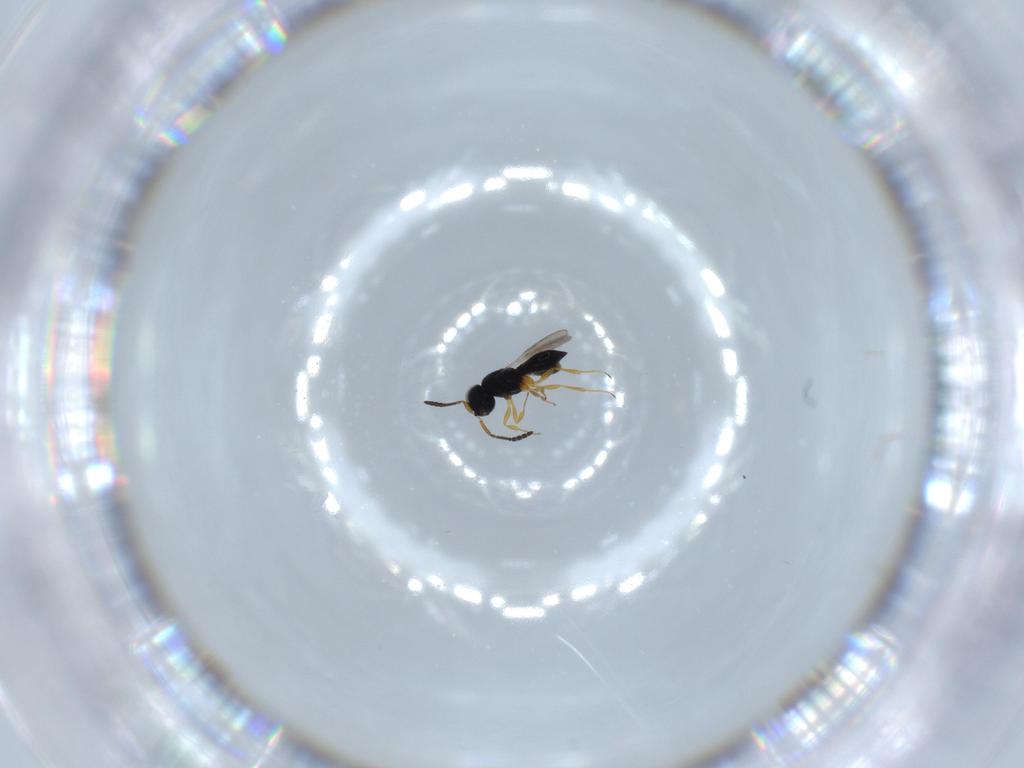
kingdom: Animalia
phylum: Arthropoda
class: Insecta
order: Hymenoptera
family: Scelionidae
